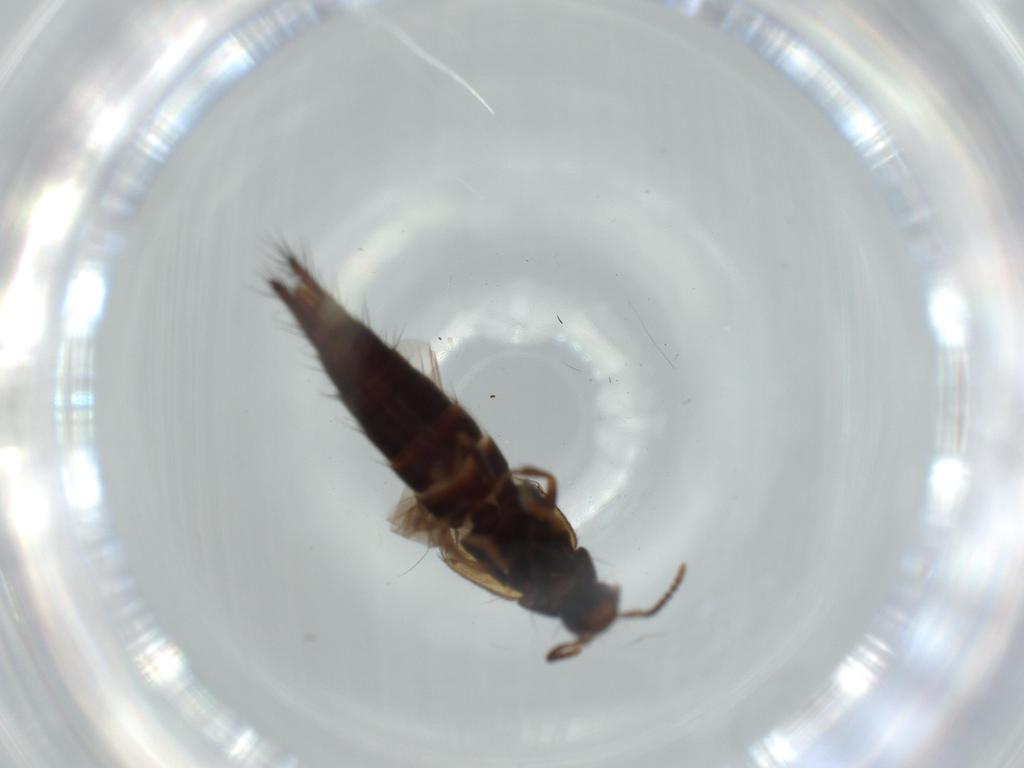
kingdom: Animalia
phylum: Arthropoda
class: Insecta
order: Coleoptera
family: Staphylinidae
